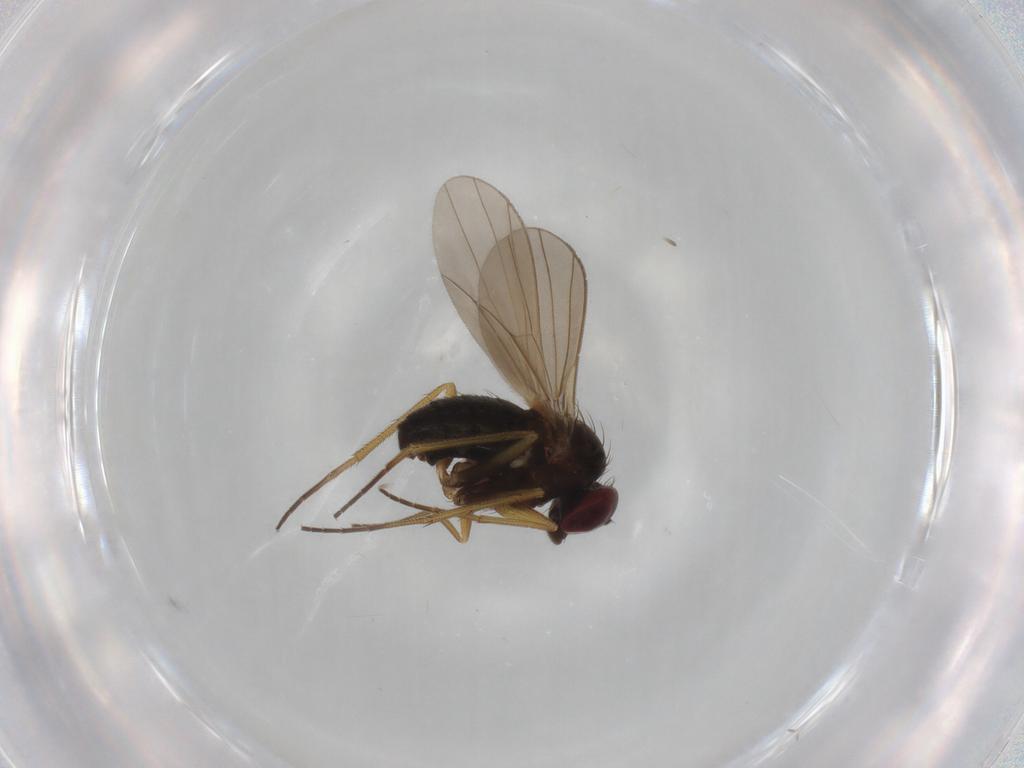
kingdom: Animalia
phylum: Arthropoda
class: Insecta
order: Diptera
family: Cecidomyiidae
